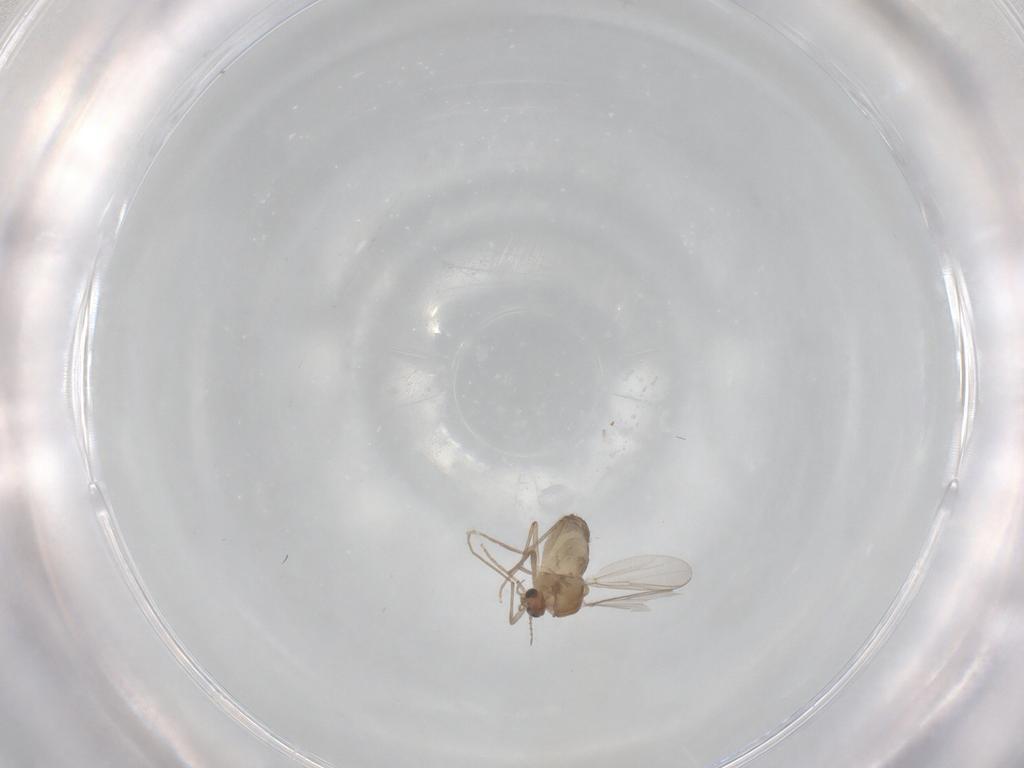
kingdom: Animalia
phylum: Arthropoda
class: Insecta
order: Diptera
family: Chironomidae
